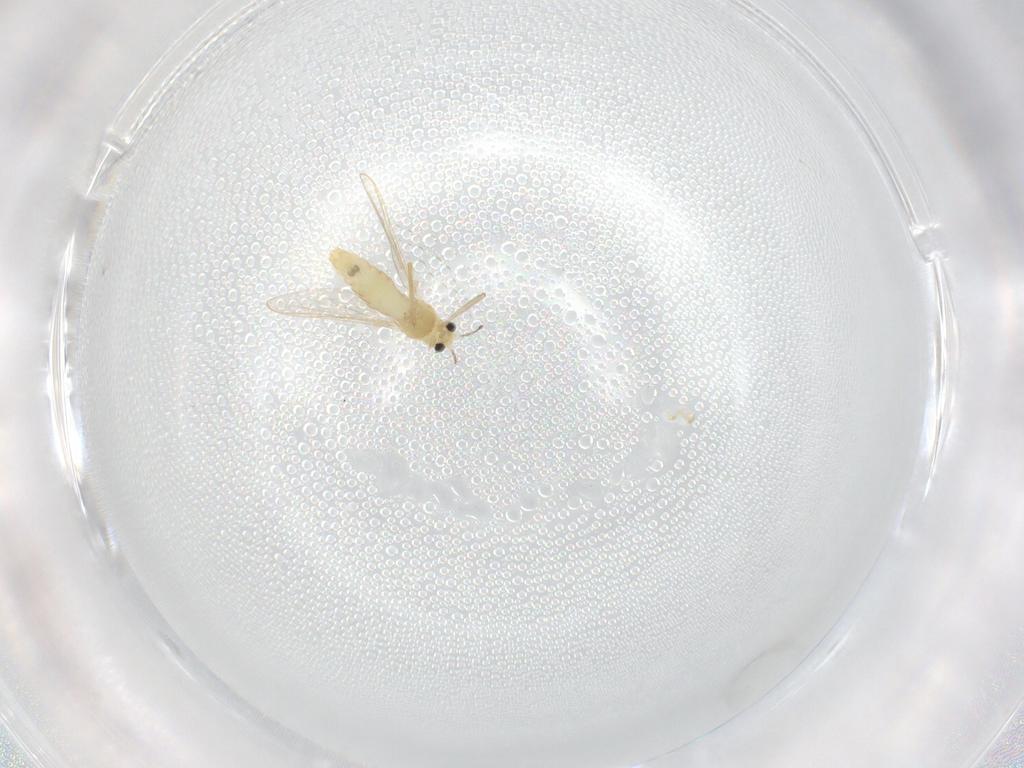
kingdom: Animalia
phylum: Arthropoda
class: Insecta
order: Diptera
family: Chironomidae
